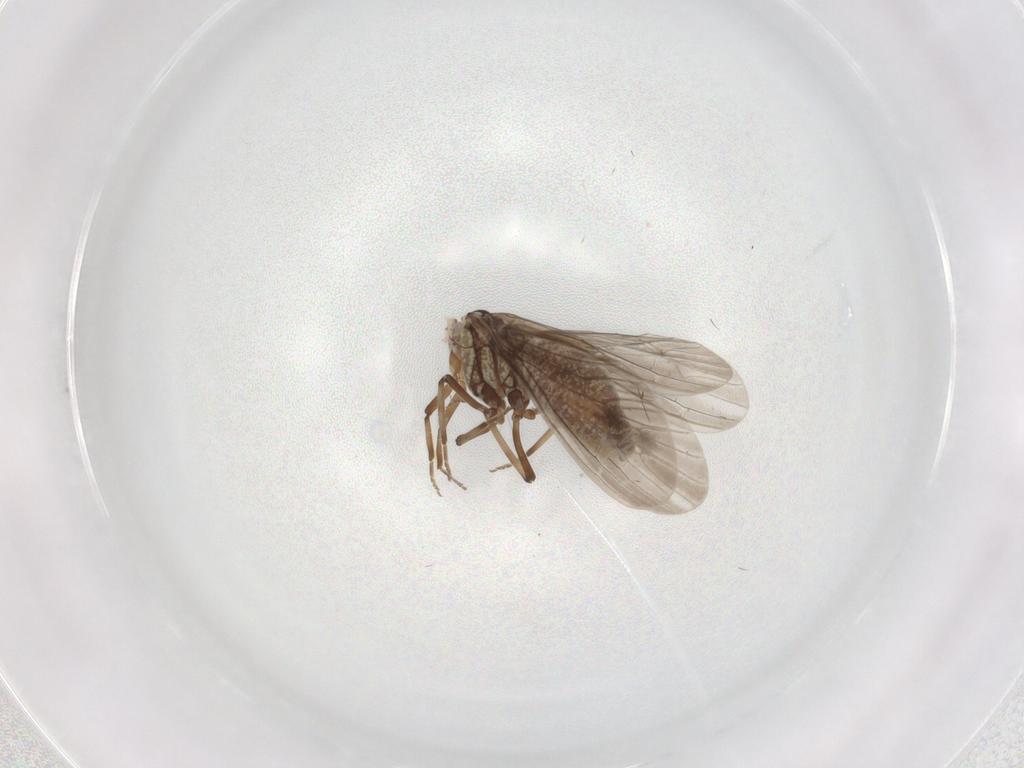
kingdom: Animalia
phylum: Arthropoda
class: Insecta
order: Neuroptera
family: Coniopterygidae
